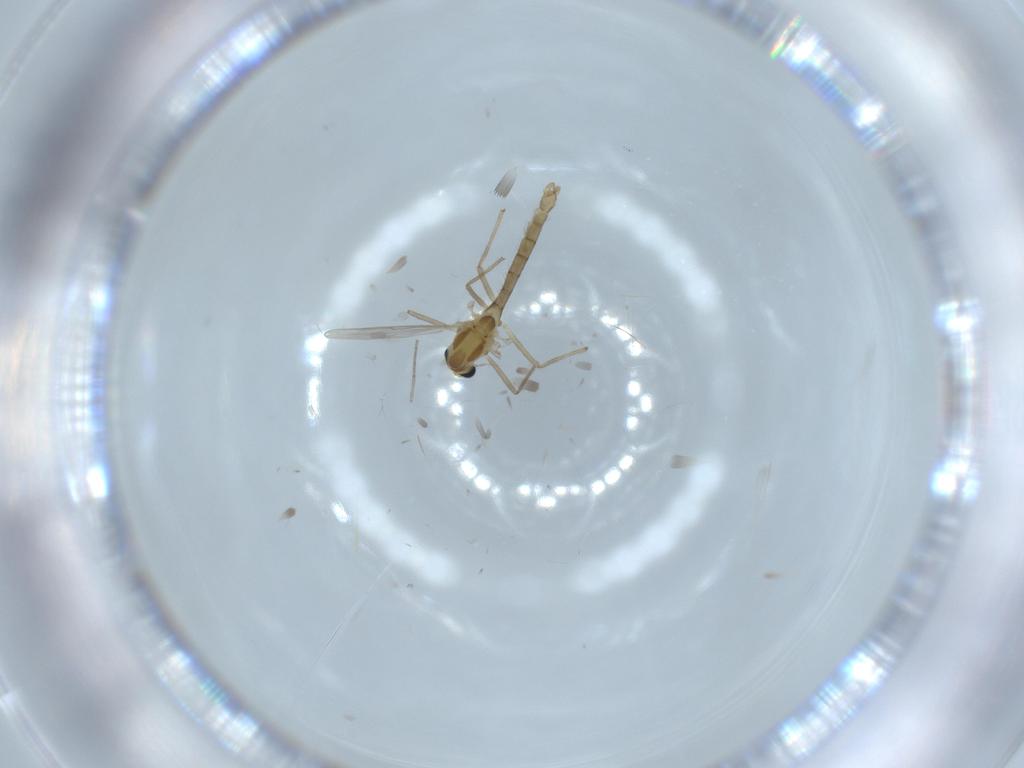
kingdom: Animalia
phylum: Arthropoda
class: Insecta
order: Diptera
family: Chironomidae
